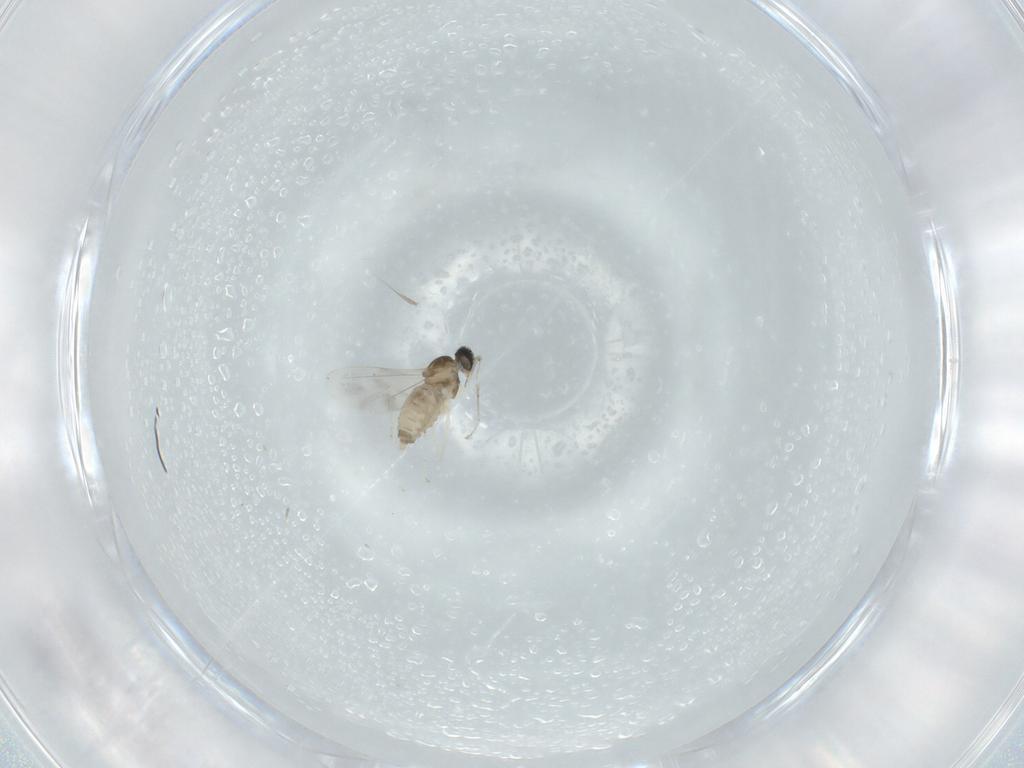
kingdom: Animalia
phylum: Arthropoda
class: Insecta
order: Diptera
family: Cecidomyiidae
